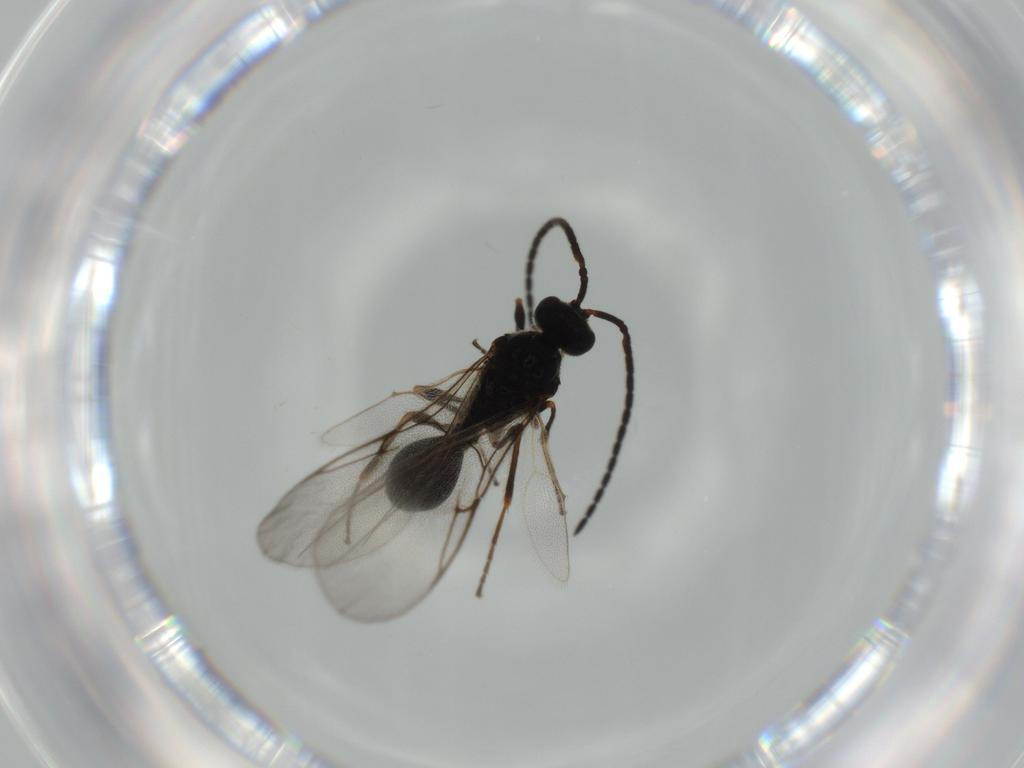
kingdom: Animalia
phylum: Arthropoda
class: Insecta
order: Hymenoptera
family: Diapriidae
